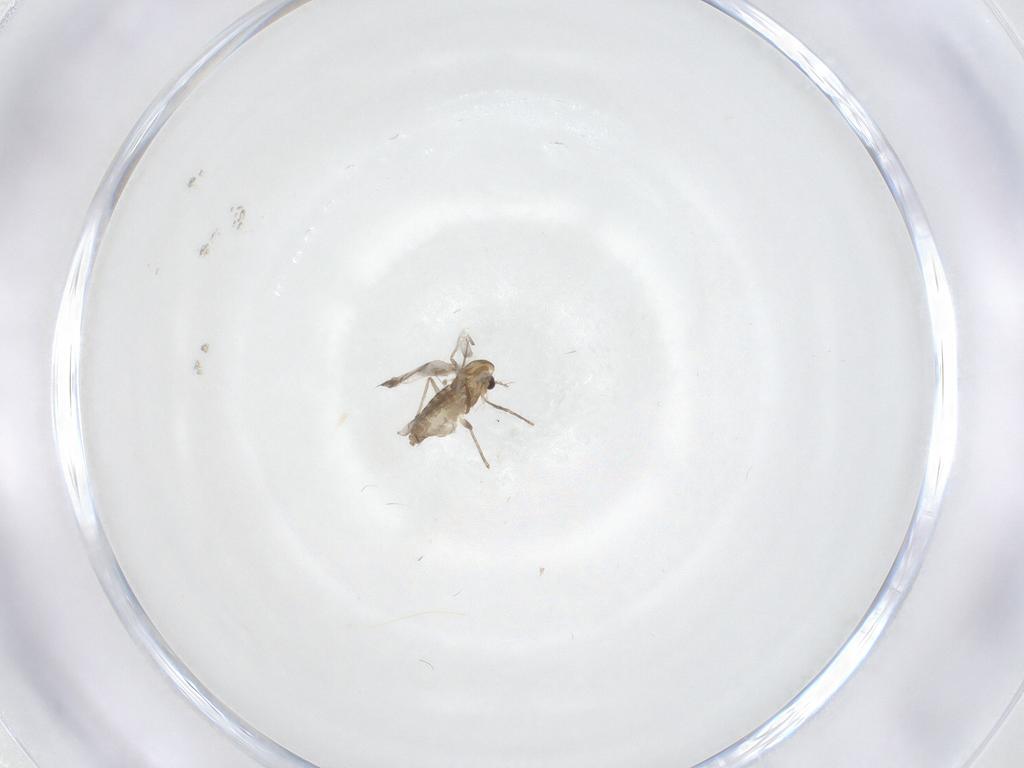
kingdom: Animalia
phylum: Arthropoda
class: Insecta
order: Diptera
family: Chironomidae
